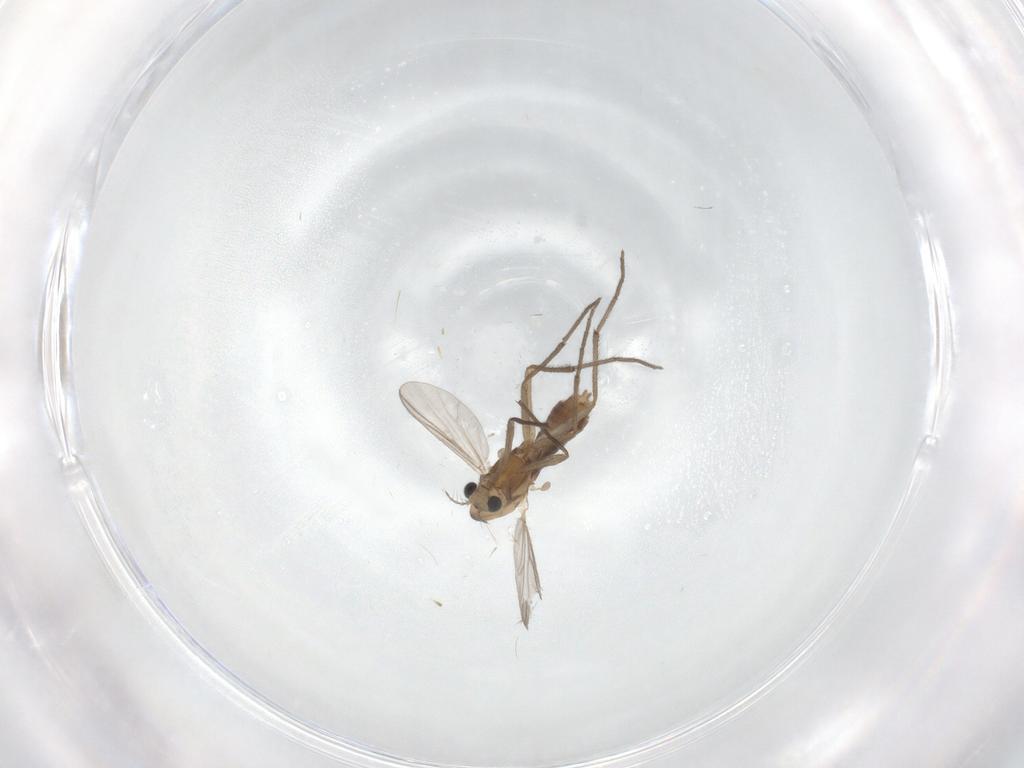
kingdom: Animalia
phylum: Arthropoda
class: Insecta
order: Diptera
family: Chironomidae
